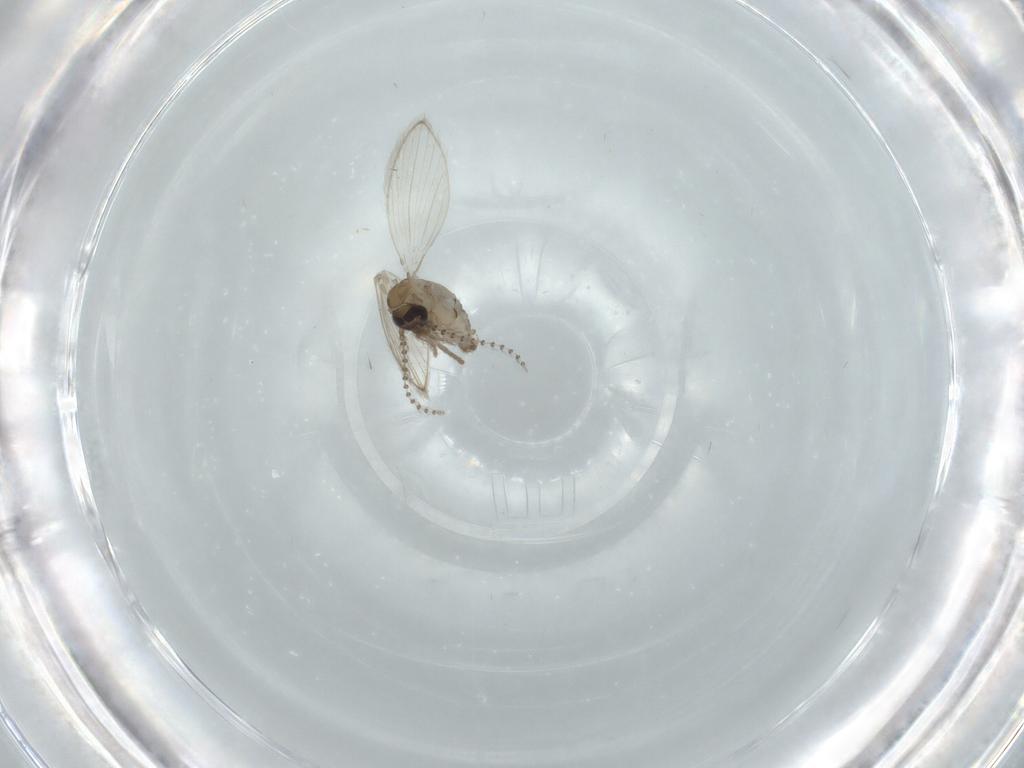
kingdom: Animalia
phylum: Arthropoda
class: Insecta
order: Diptera
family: Psychodidae
